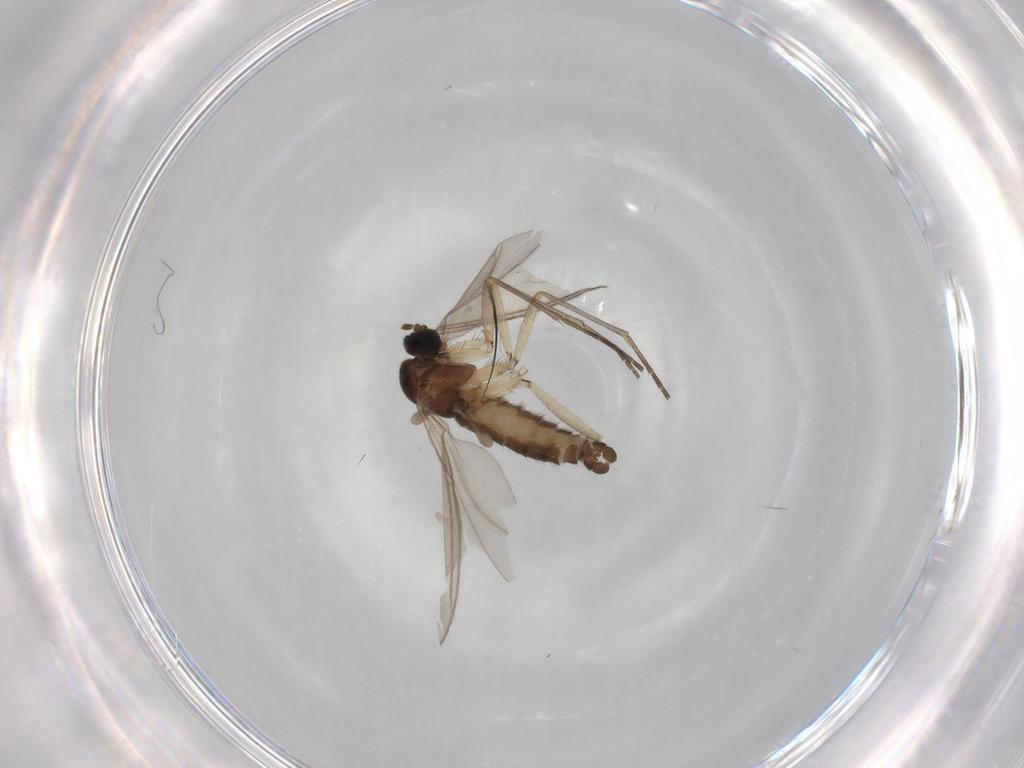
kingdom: Animalia
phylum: Arthropoda
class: Insecta
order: Diptera
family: Sciaridae
